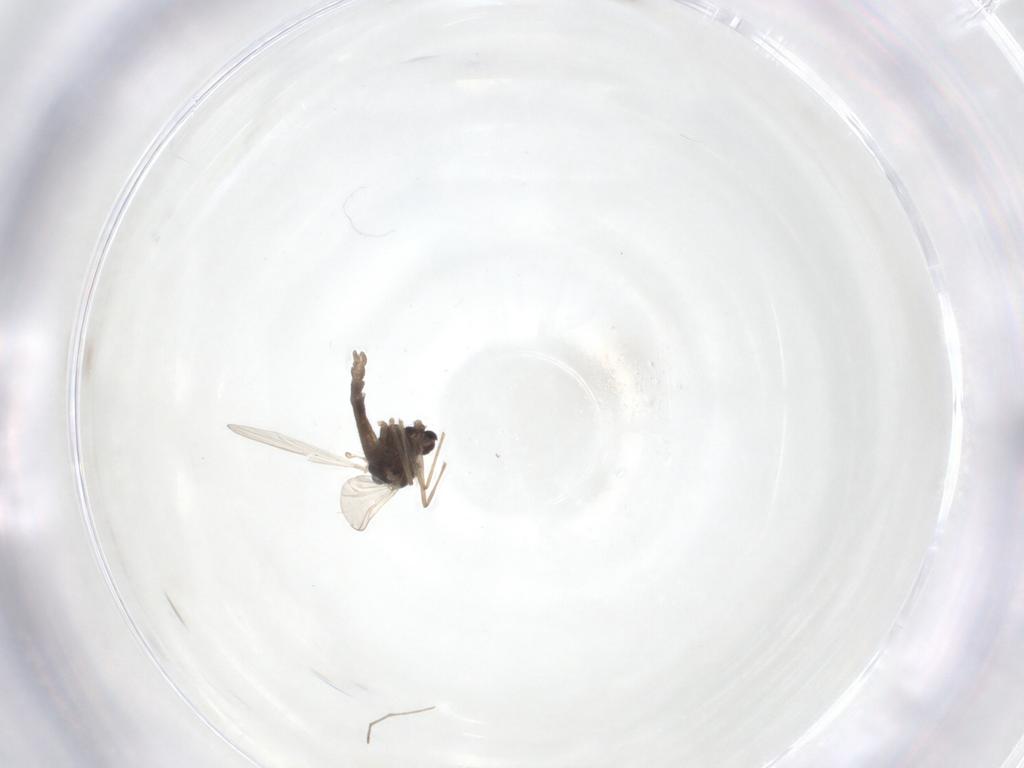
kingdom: Animalia
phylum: Arthropoda
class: Insecta
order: Diptera
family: Chironomidae
